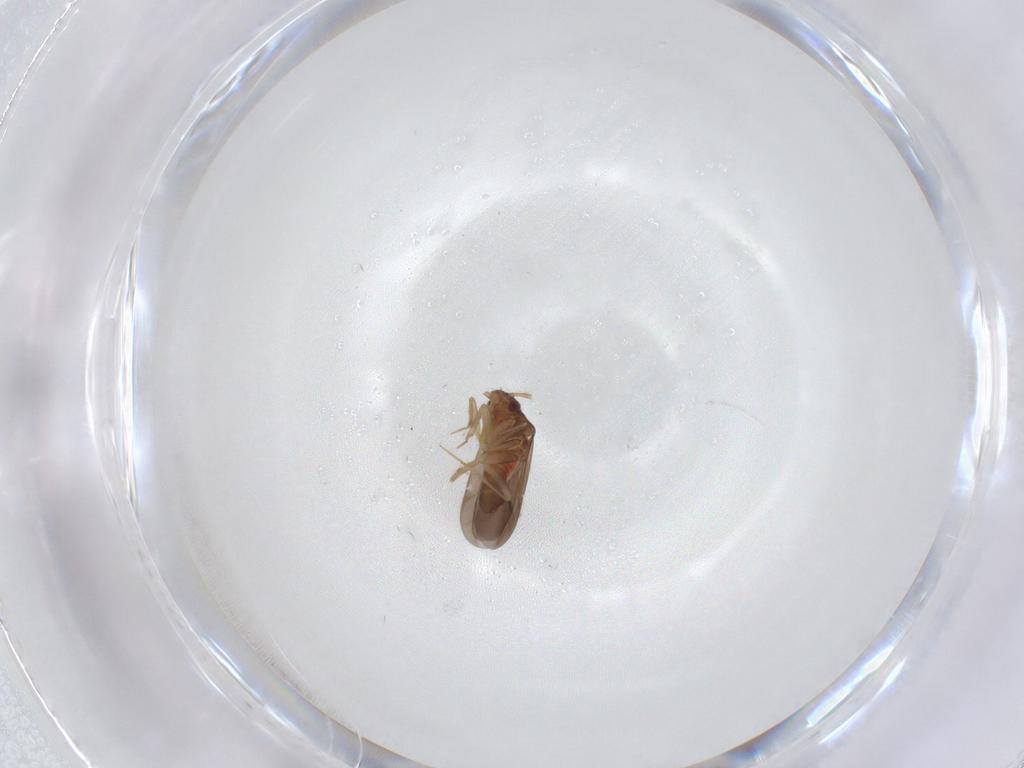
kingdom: Animalia
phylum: Arthropoda
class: Insecta
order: Hemiptera
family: Ceratocombidae
